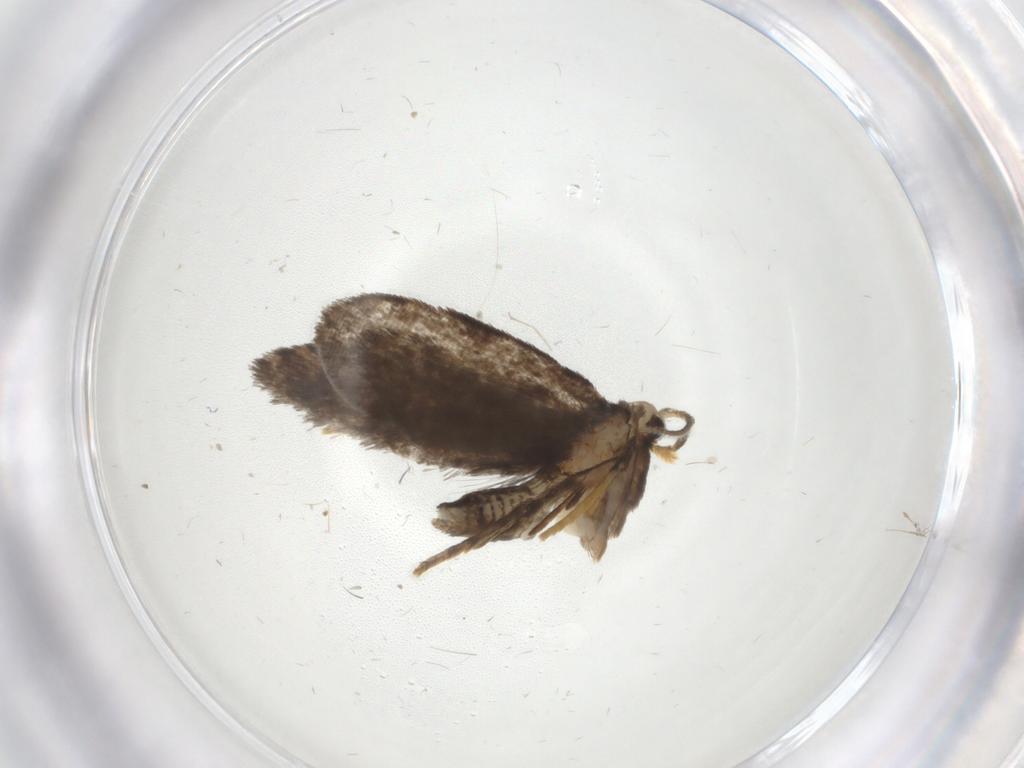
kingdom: Animalia
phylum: Arthropoda
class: Insecta
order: Lepidoptera
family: Psychidae
